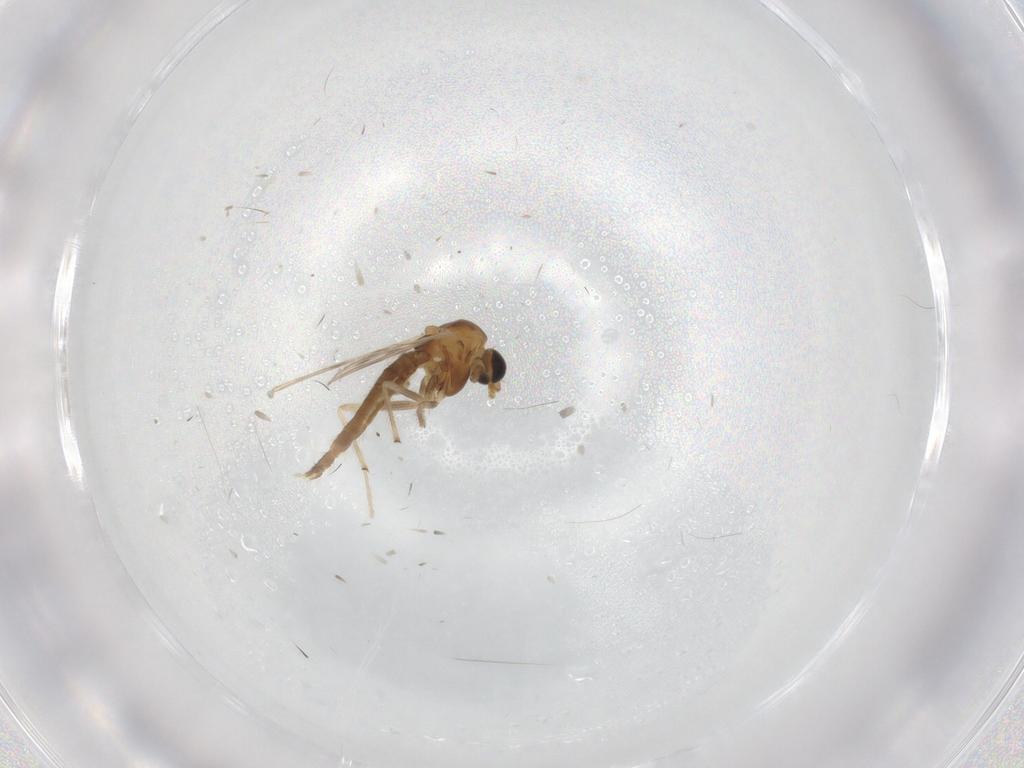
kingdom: Animalia
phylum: Arthropoda
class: Insecta
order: Diptera
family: Chironomidae
